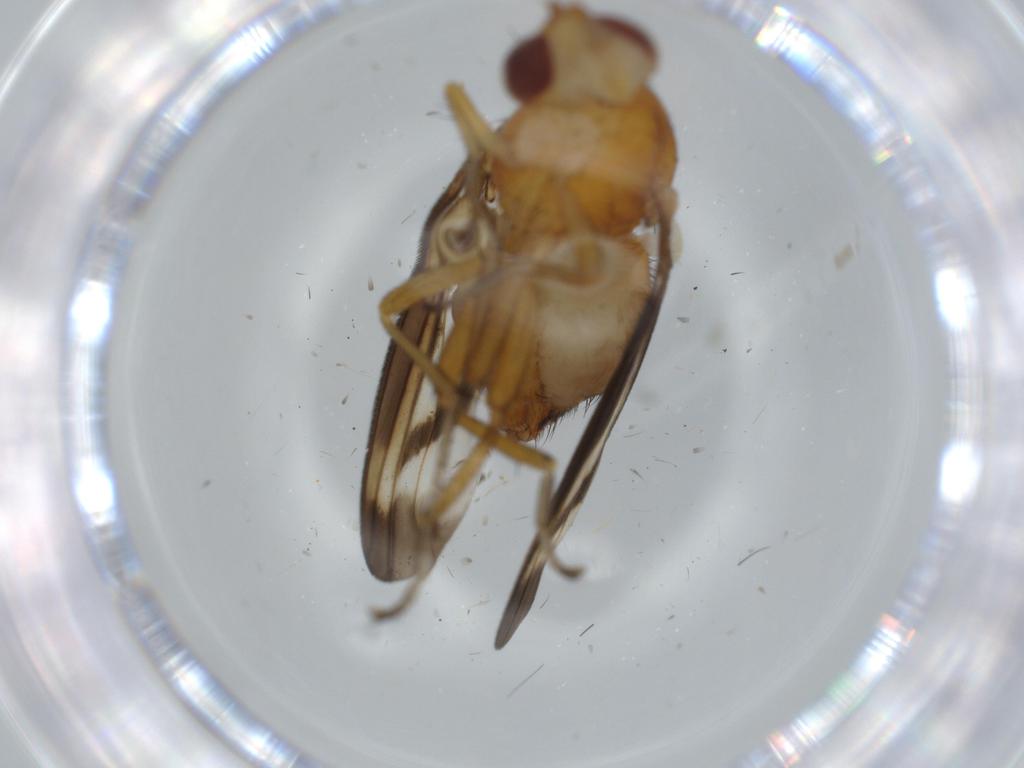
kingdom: Animalia
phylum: Arthropoda
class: Insecta
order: Diptera
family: Lauxaniidae
